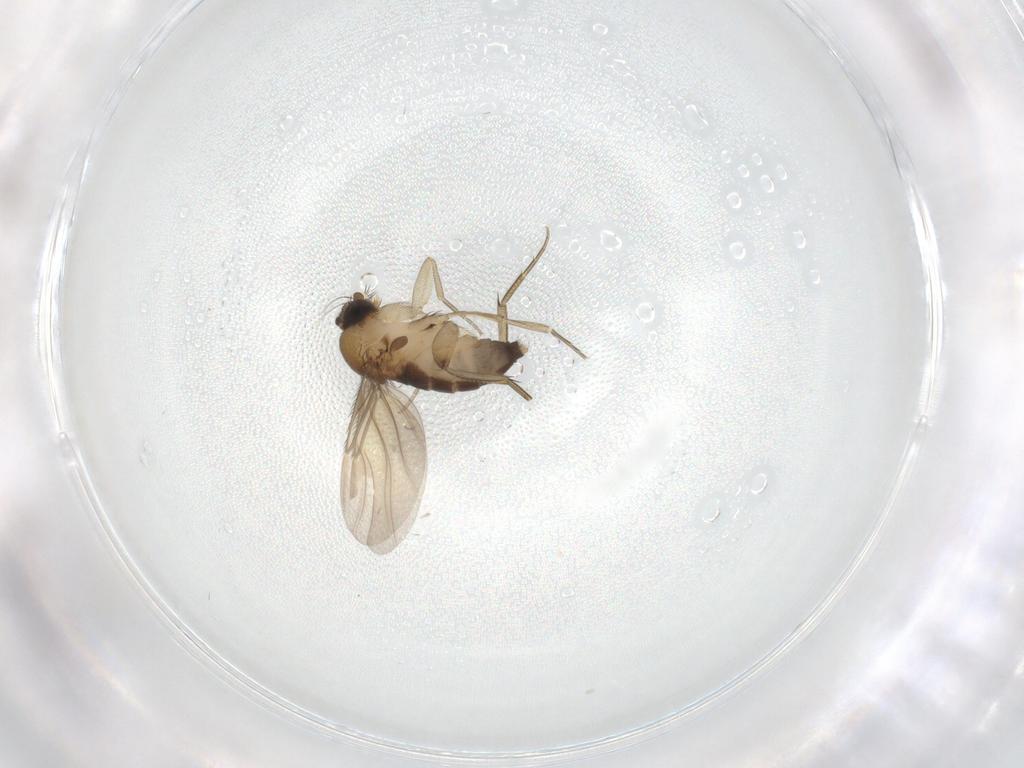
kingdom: Animalia
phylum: Arthropoda
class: Insecta
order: Diptera
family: Phoridae
